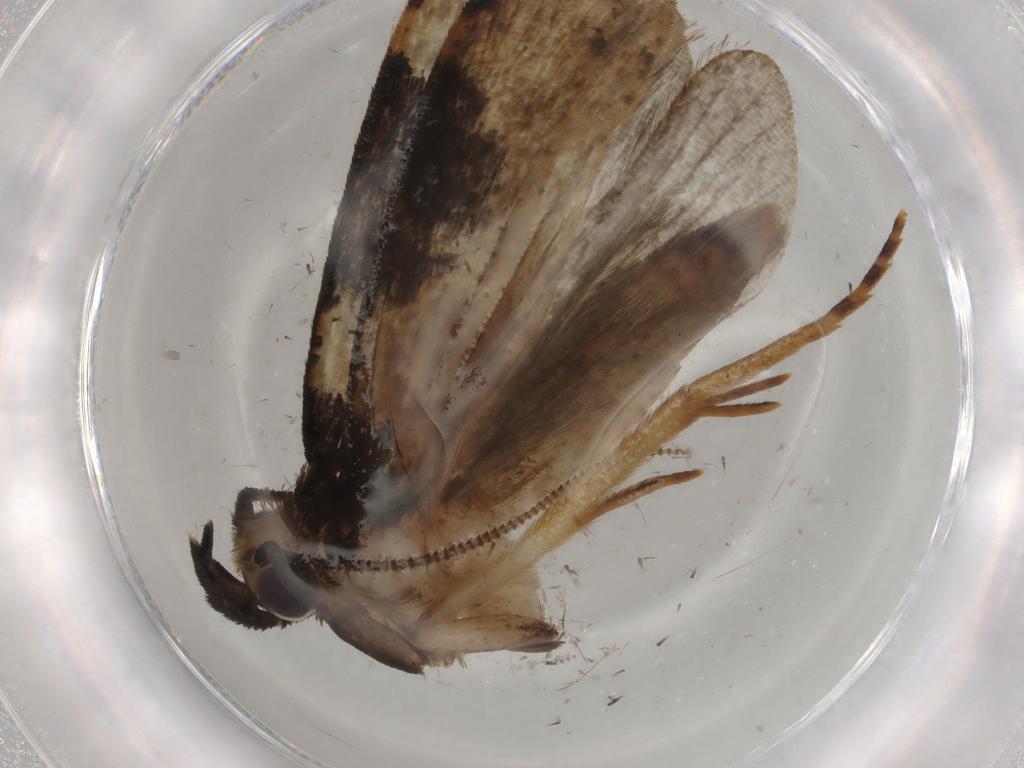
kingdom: Animalia
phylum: Arthropoda
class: Insecta
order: Lepidoptera
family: Tineidae
